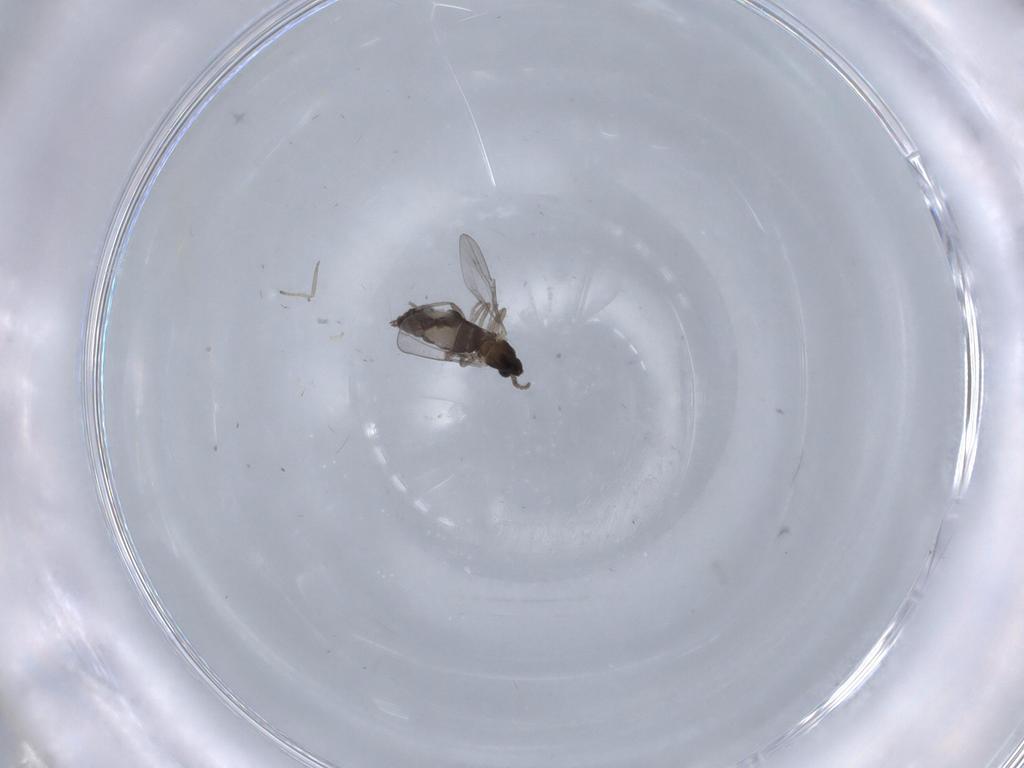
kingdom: Animalia
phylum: Arthropoda
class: Insecta
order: Diptera
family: Cecidomyiidae
